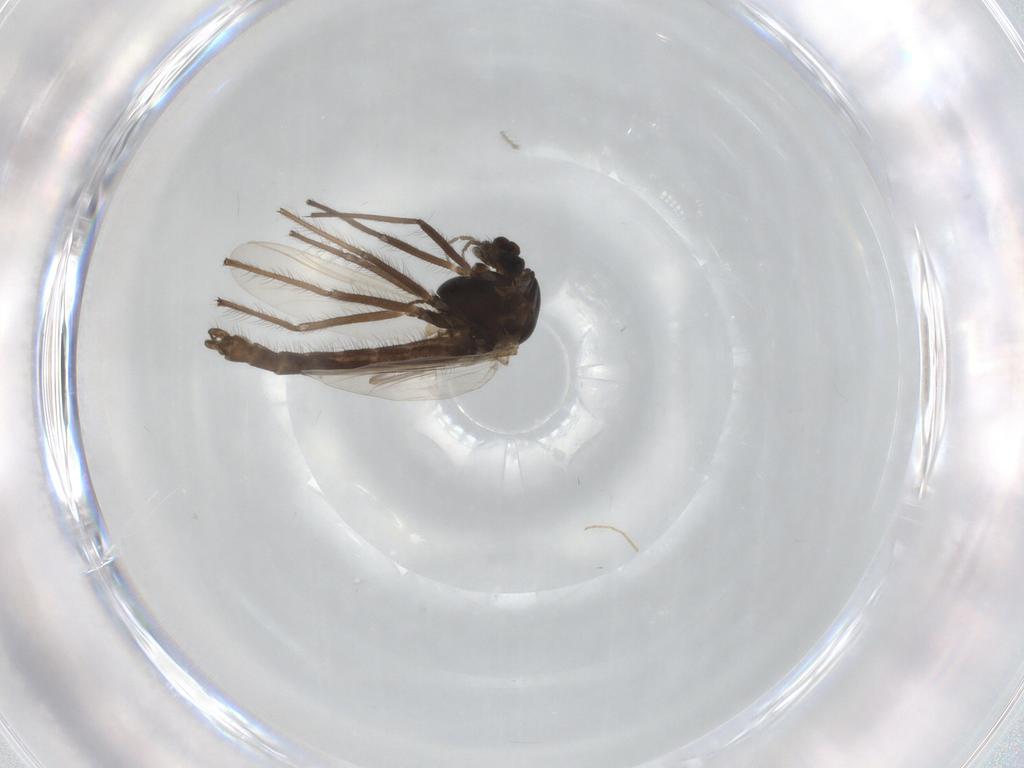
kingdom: Animalia
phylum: Arthropoda
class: Insecta
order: Diptera
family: Chironomidae
